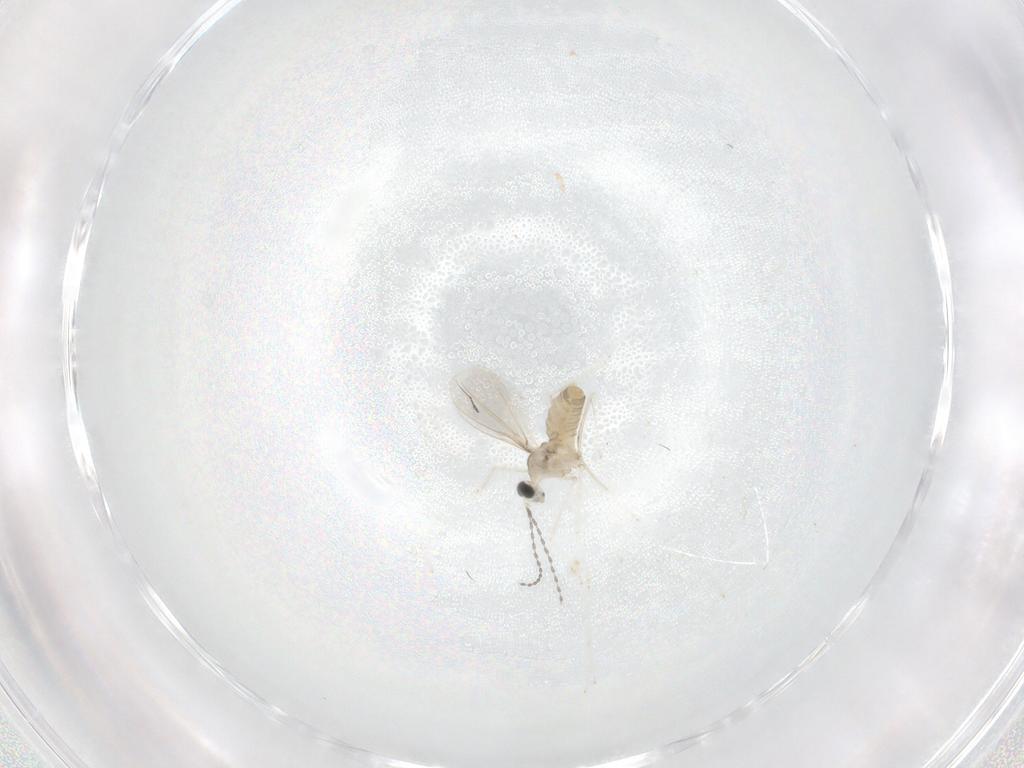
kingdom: Animalia
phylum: Arthropoda
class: Insecta
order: Diptera
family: Cecidomyiidae
